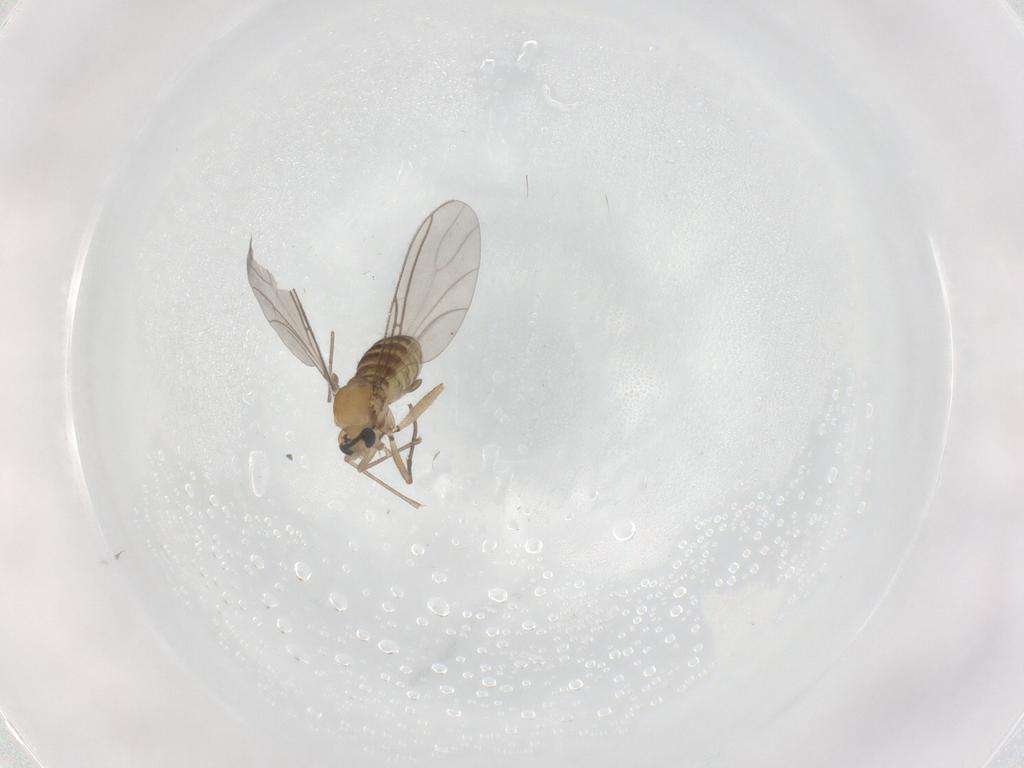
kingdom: Animalia
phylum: Arthropoda
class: Insecta
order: Diptera
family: Sciaridae
